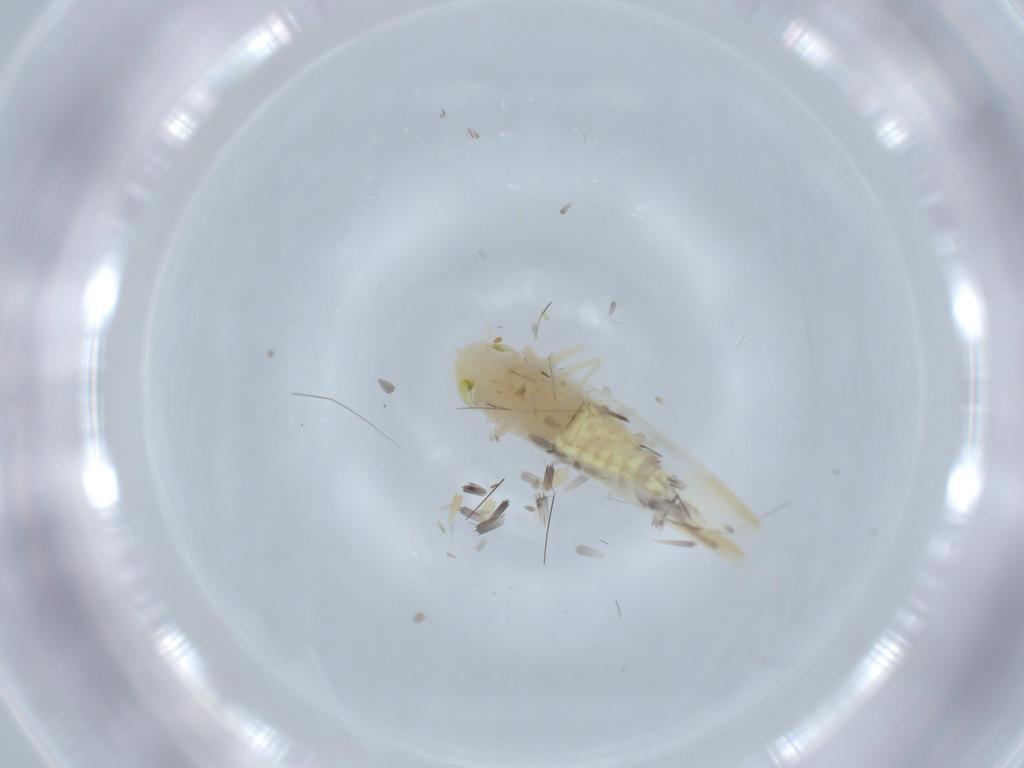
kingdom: Animalia
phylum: Arthropoda
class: Insecta
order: Hemiptera
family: Cicadellidae
